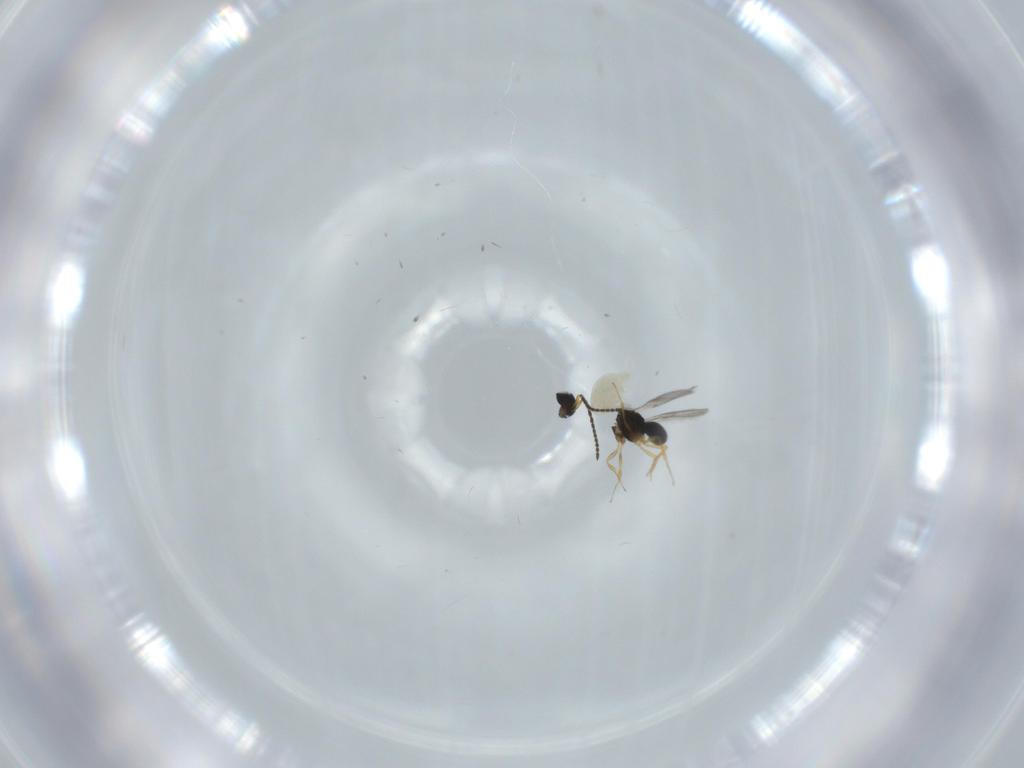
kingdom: Animalia
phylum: Arthropoda
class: Insecta
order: Hymenoptera
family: Scelionidae
